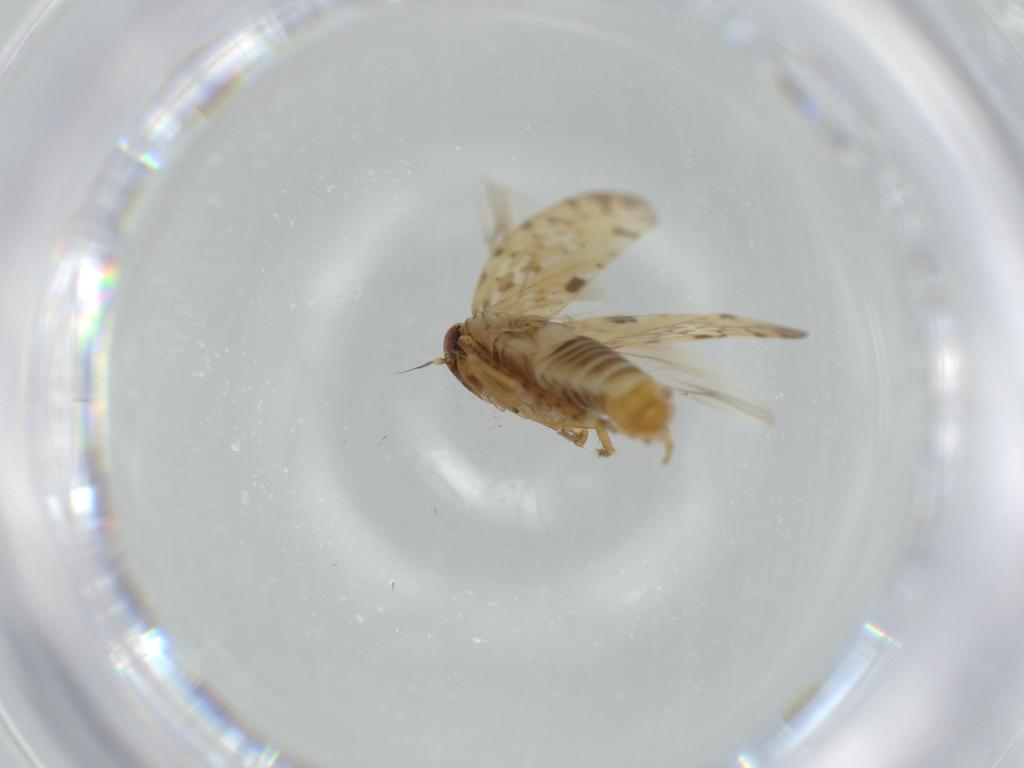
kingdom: Animalia
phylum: Arthropoda
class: Insecta
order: Hemiptera
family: Cicadellidae
